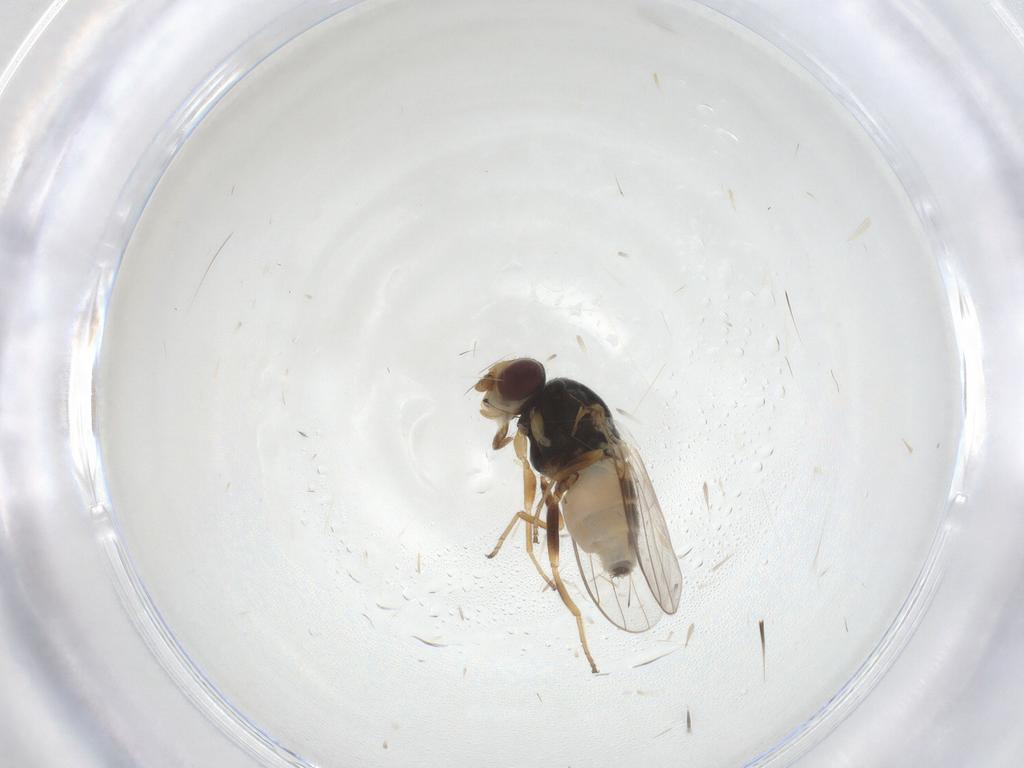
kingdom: Animalia
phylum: Arthropoda
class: Insecta
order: Diptera
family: Chloropidae
